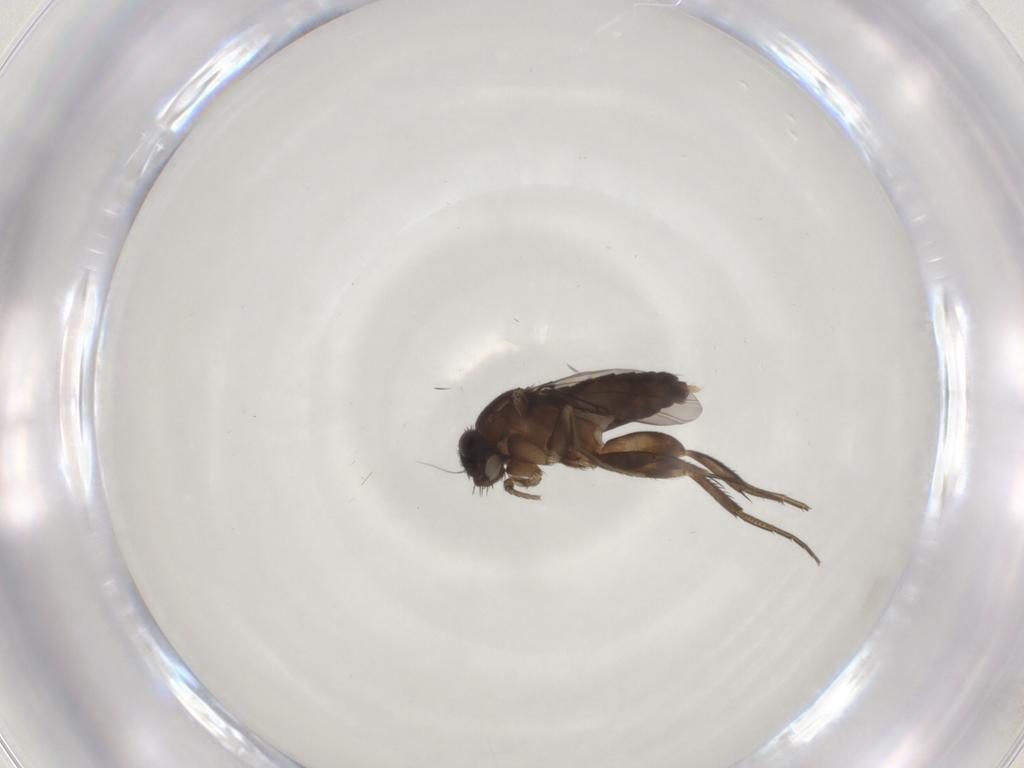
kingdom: Animalia
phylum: Arthropoda
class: Insecta
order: Diptera
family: Phoridae
